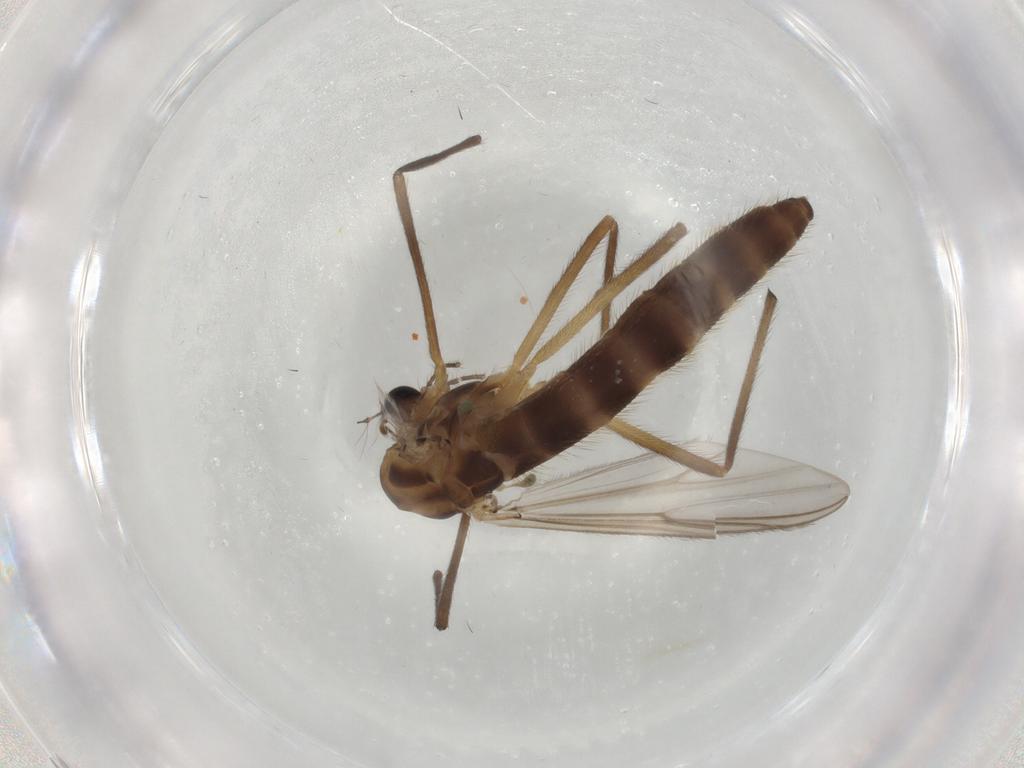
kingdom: Animalia
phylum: Arthropoda
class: Insecta
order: Diptera
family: Chironomidae
